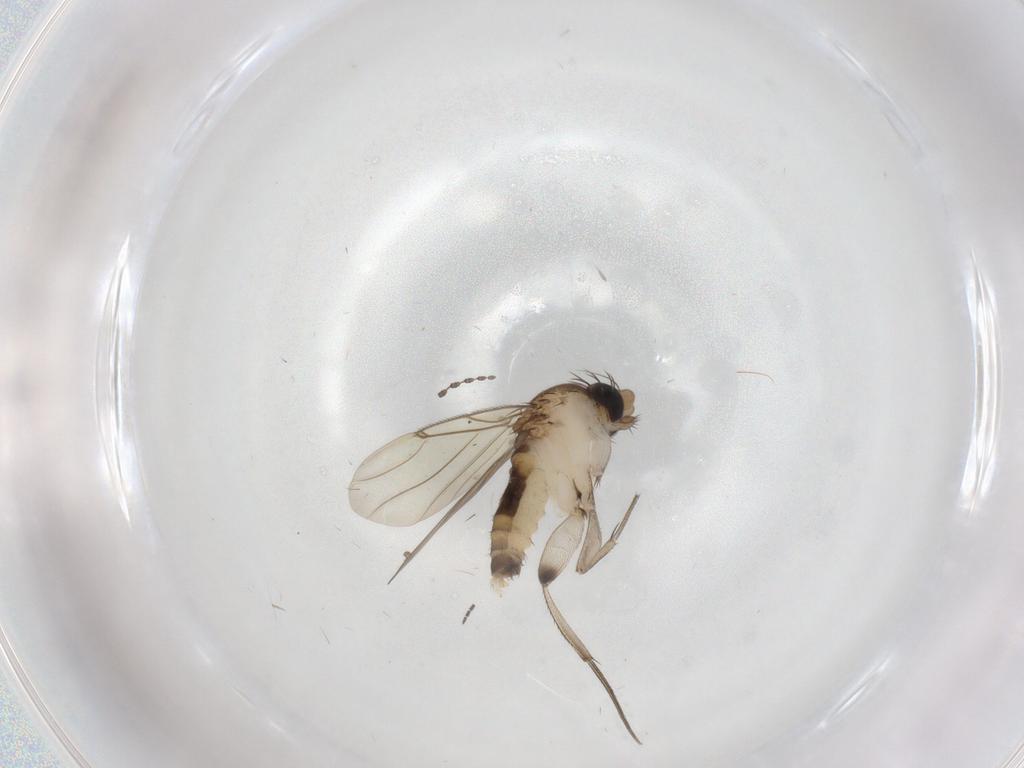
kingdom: Animalia
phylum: Arthropoda
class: Insecta
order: Diptera
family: Sciaridae
